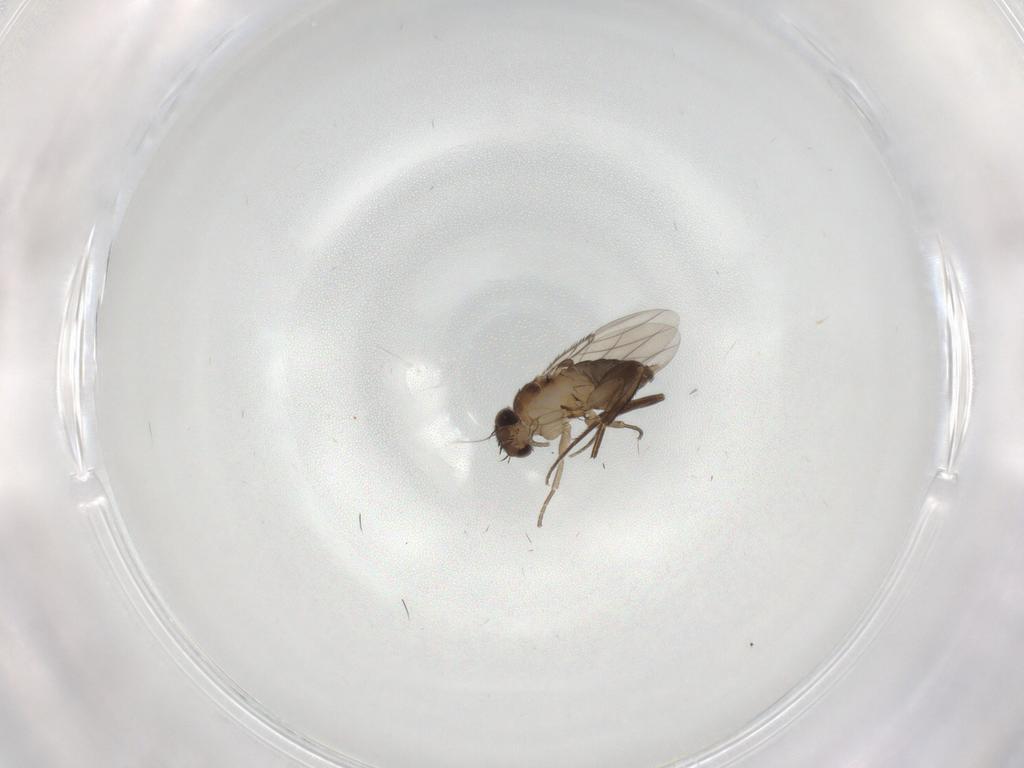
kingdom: Animalia
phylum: Arthropoda
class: Insecta
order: Diptera
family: Phoridae
